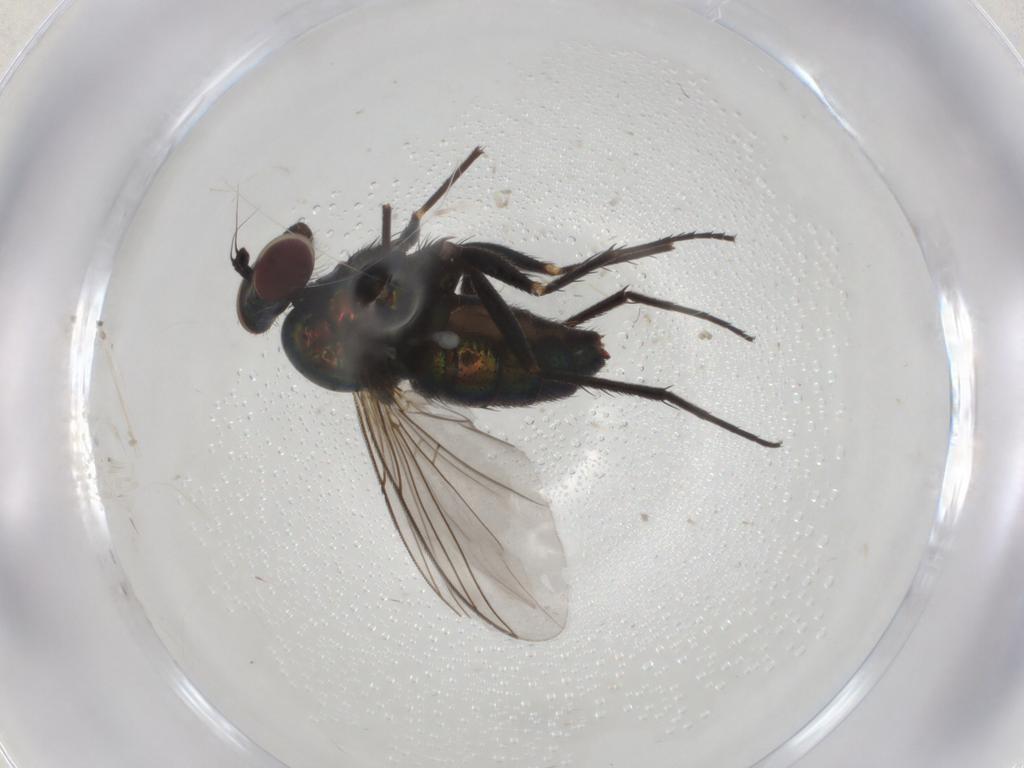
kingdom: Animalia
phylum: Arthropoda
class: Insecta
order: Diptera
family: Dolichopodidae
